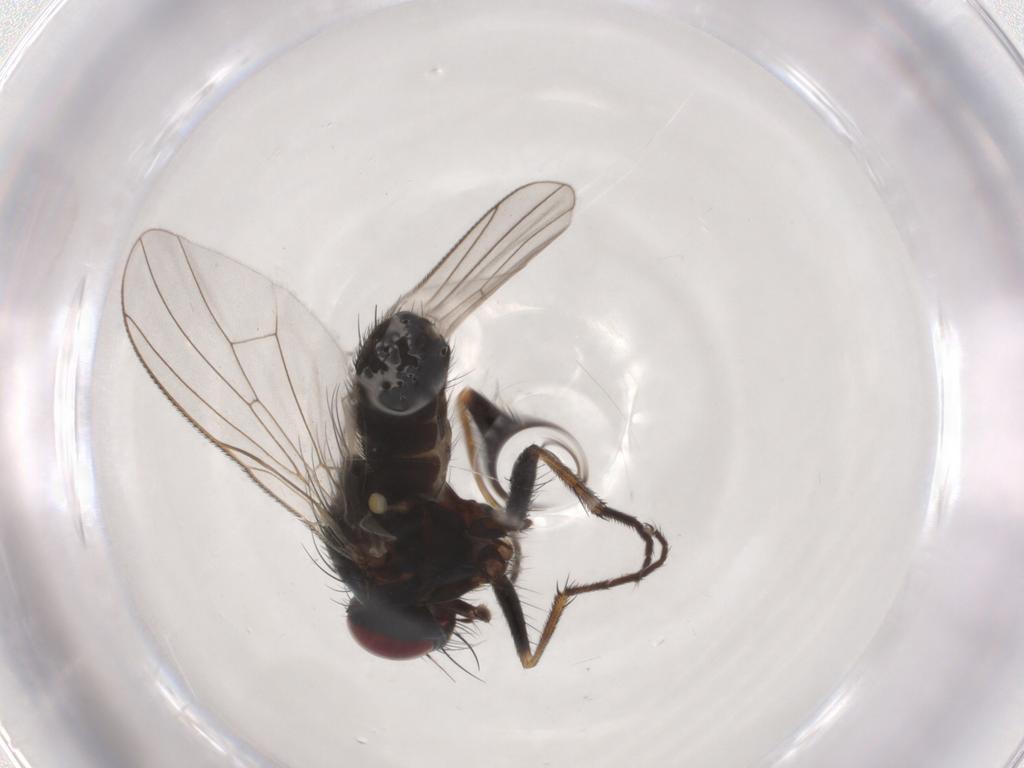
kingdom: Animalia
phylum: Arthropoda
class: Insecta
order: Diptera
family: Muscidae
